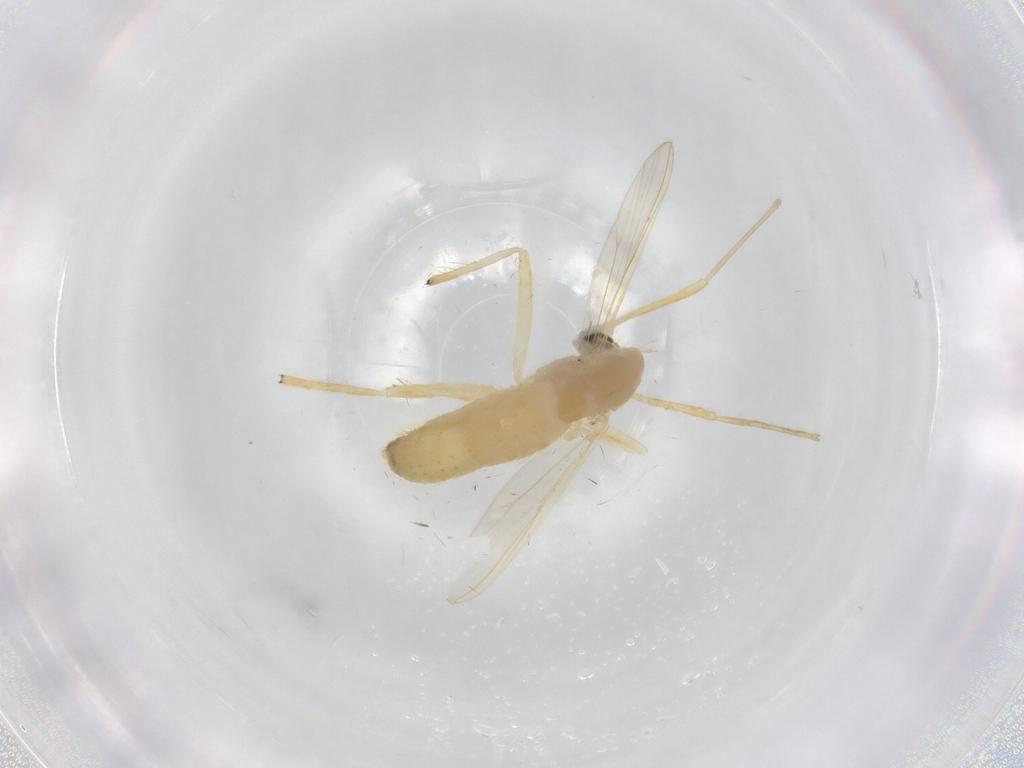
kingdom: Animalia
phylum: Arthropoda
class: Insecta
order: Diptera
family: Chironomidae
